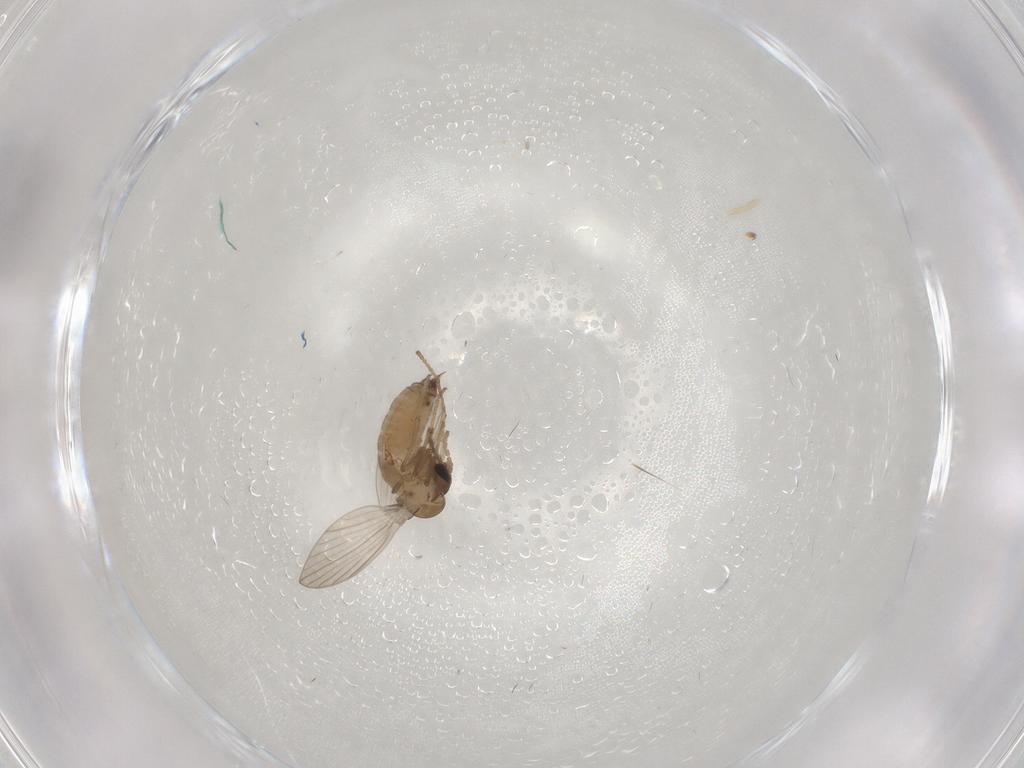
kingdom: Animalia
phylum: Arthropoda
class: Insecta
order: Diptera
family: Psychodidae
